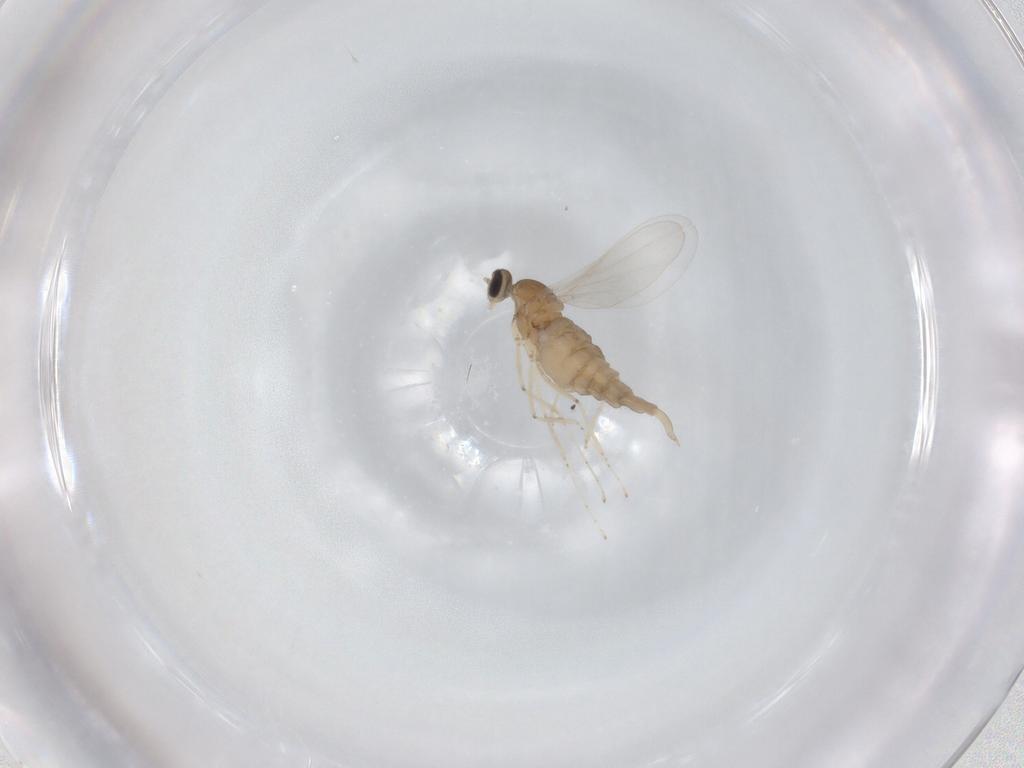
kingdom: Animalia
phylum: Arthropoda
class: Insecta
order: Diptera
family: Cecidomyiidae
